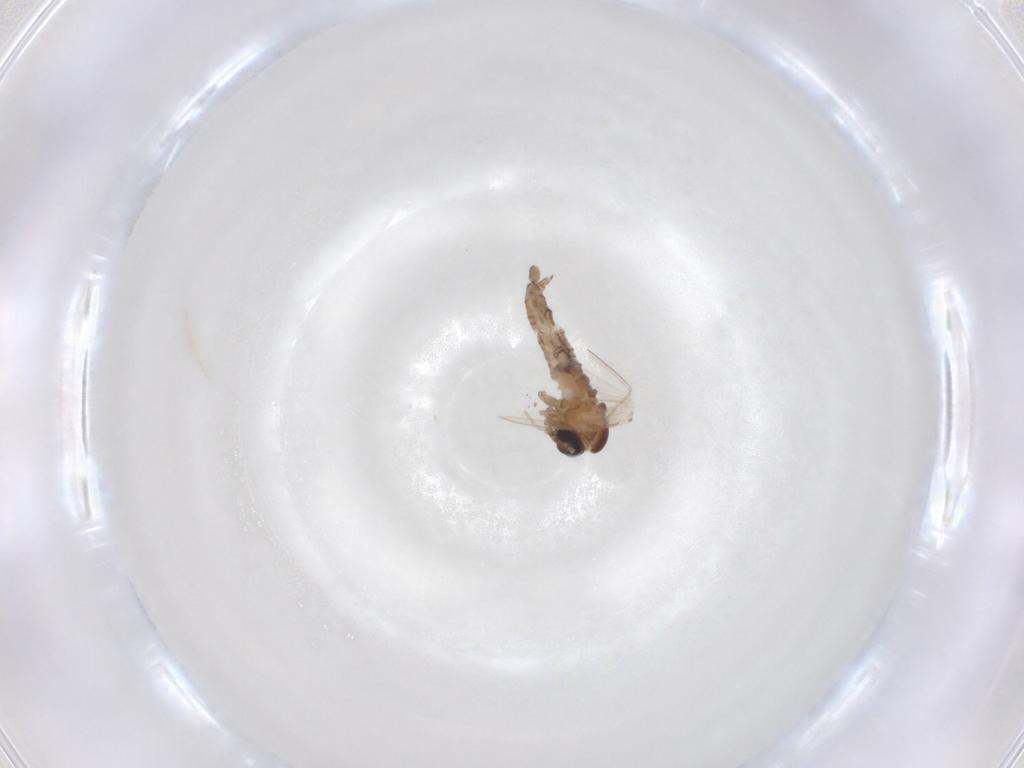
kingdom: Animalia
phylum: Arthropoda
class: Insecta
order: Diptera
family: Psychodidae
